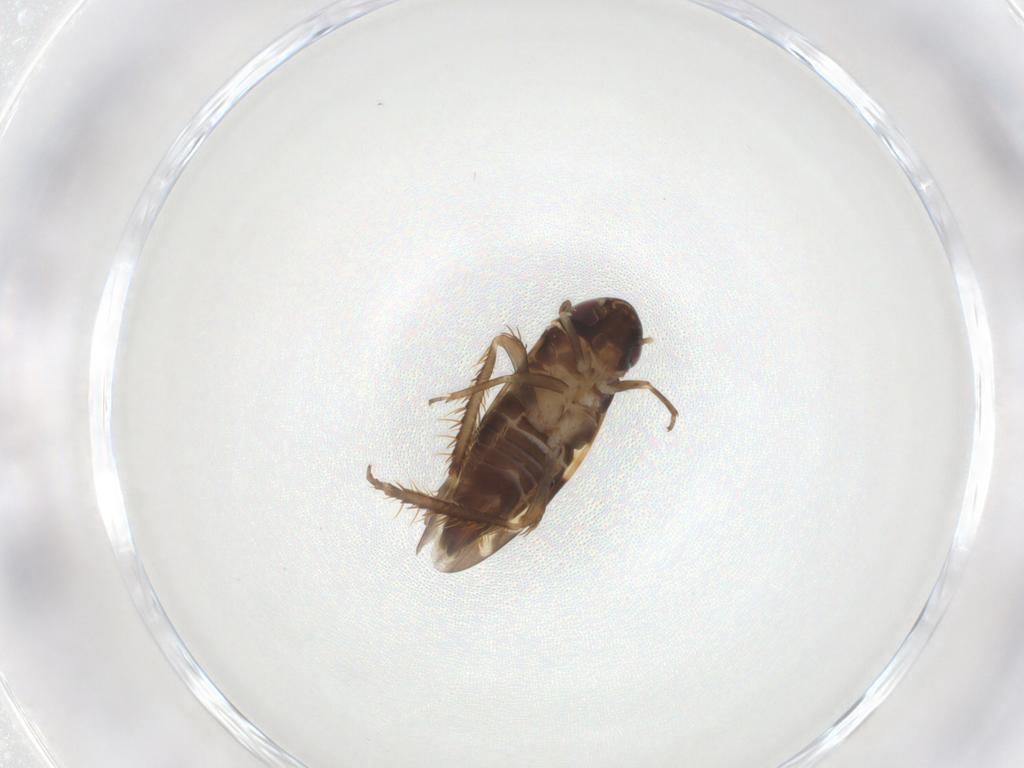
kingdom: Animalia
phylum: Arthropoda
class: Insecta
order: Hemiptera
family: Cicadellidae
